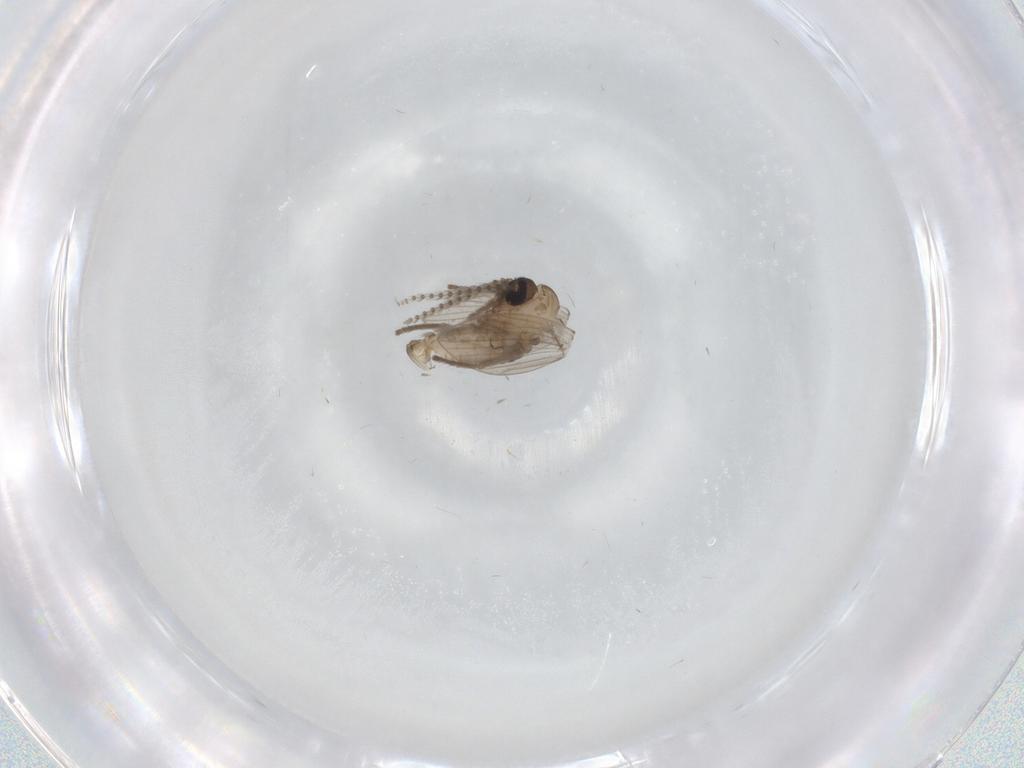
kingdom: Animalia
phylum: Arthropoda
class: Insecta
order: Diptera
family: Psychodidae
